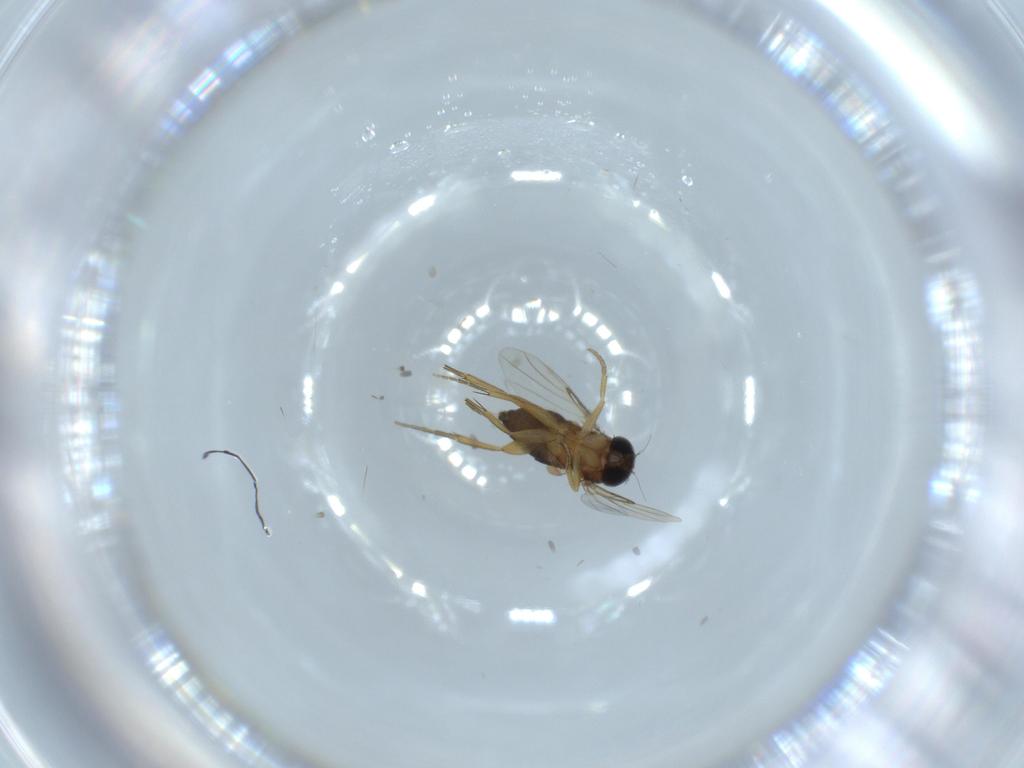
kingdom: Animalia
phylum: Arthropoda
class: Insecta
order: Diptera
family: Phoridae
